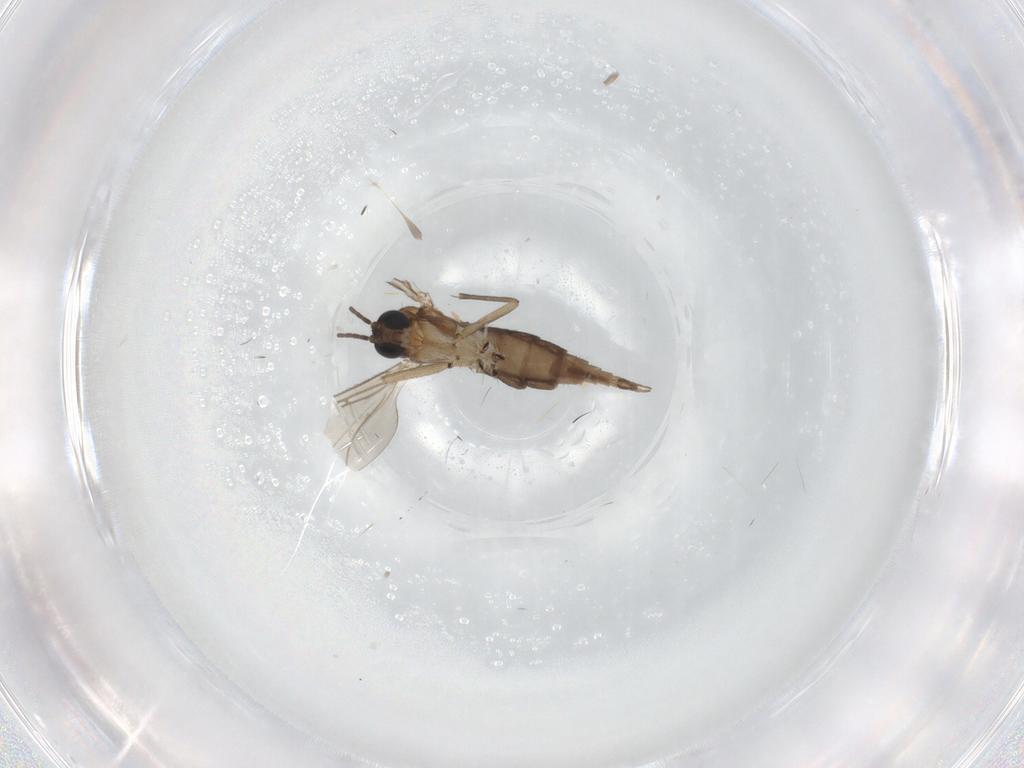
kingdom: Animalia
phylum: Arthropoda
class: Insecta
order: Diptera
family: Sciaridae
